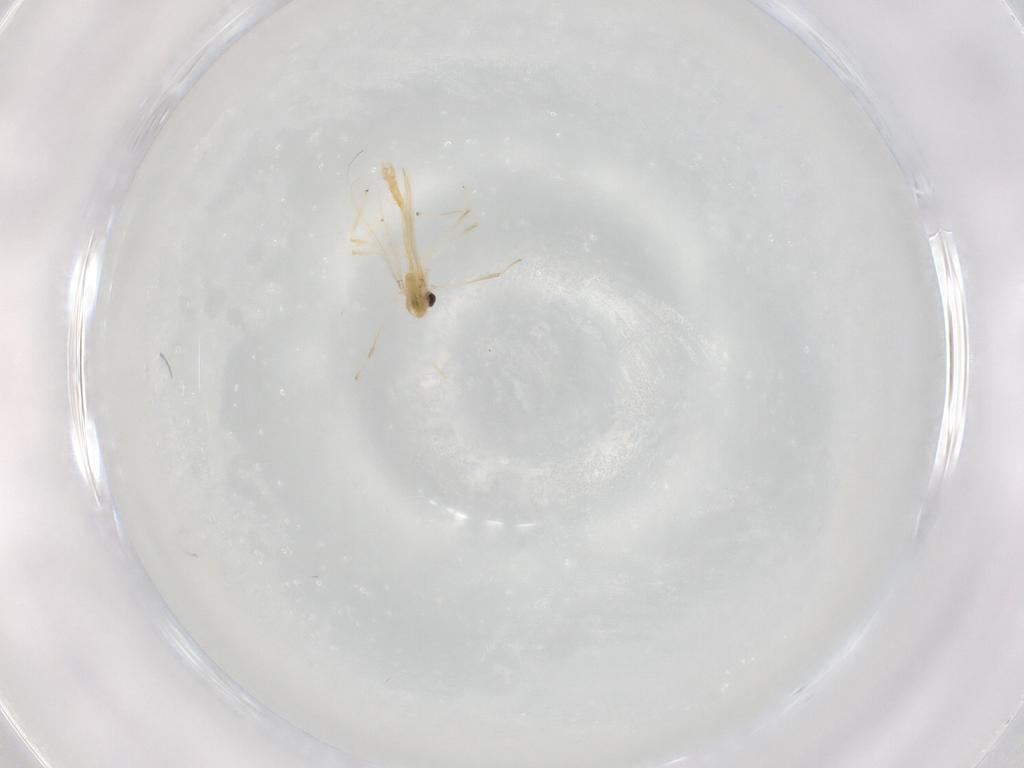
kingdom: Animalia
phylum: Arthropoda
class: Insecta
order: Diptera
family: Chironomidae
